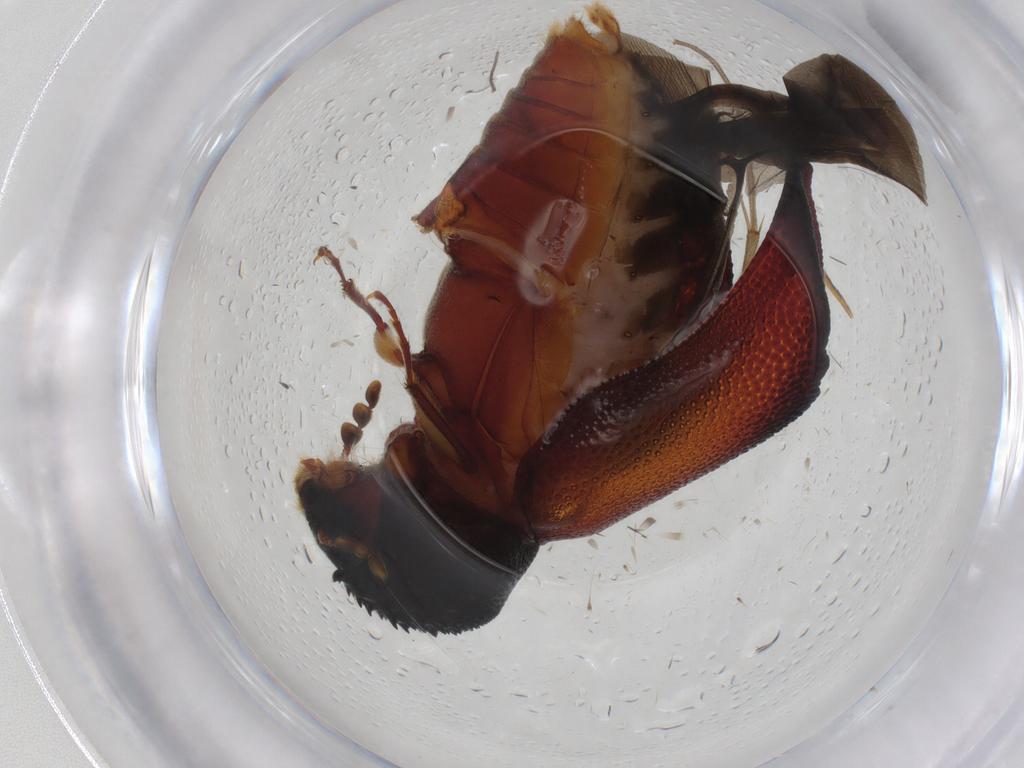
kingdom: Animalia
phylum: Arthropoda
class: Insecta
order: Coleoptera
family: Bostrichidae
